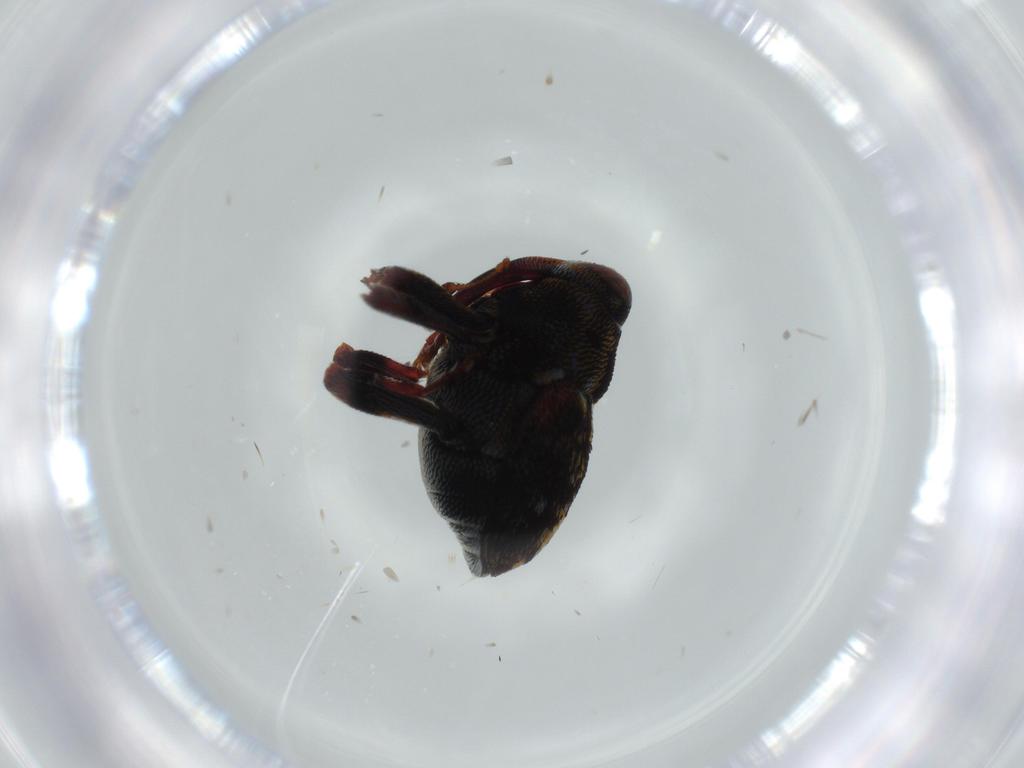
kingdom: Animalia
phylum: Arthropoda
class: Insecta
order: Coleoptera
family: Curculionidae
